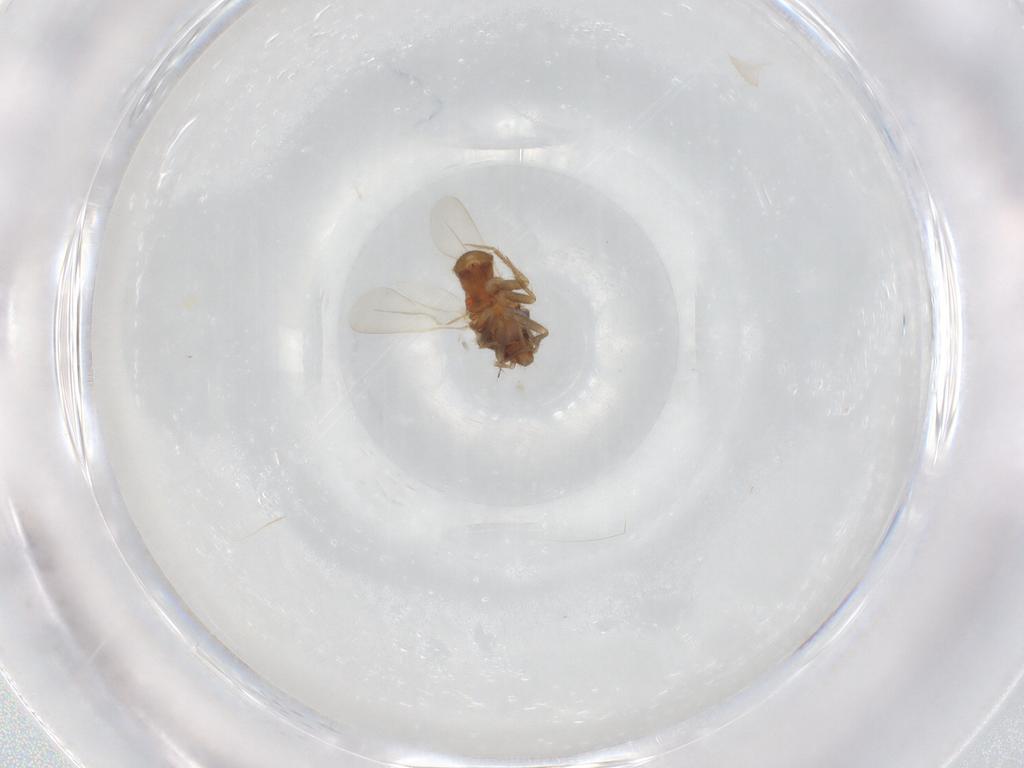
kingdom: Animalia
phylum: Arthropoda
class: Insecta
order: Hemiptera
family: Ceratocombidae
